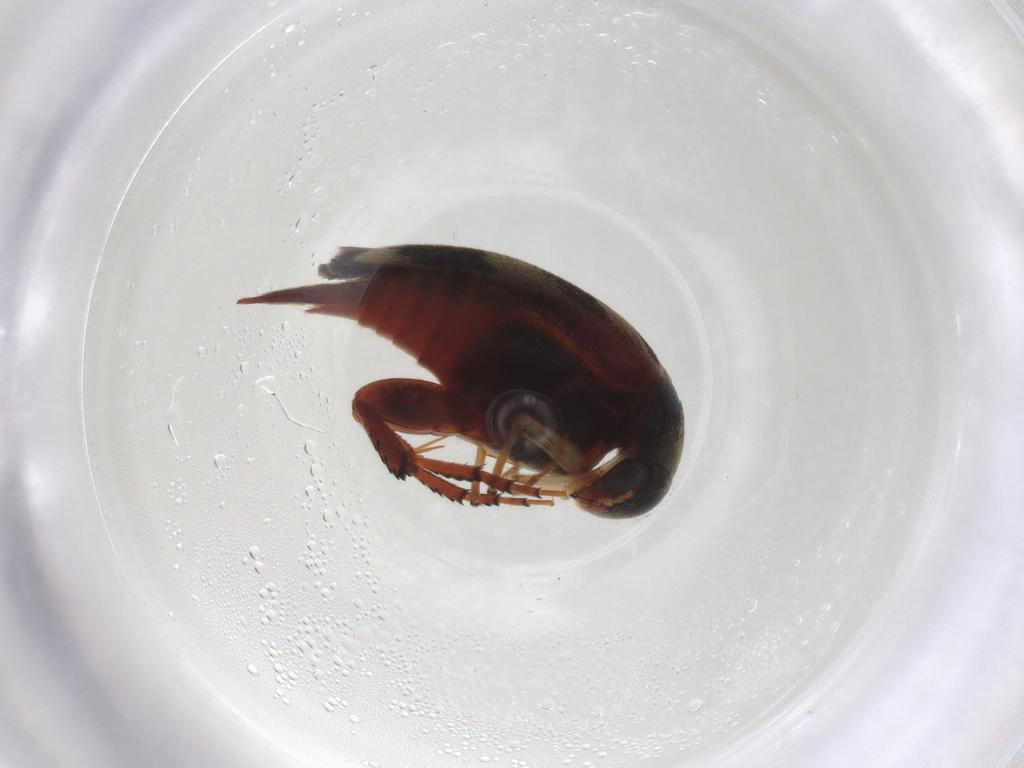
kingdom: Animalia
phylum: Arthropoda
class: Insecta
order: Coleoptera
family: Mordellidae
